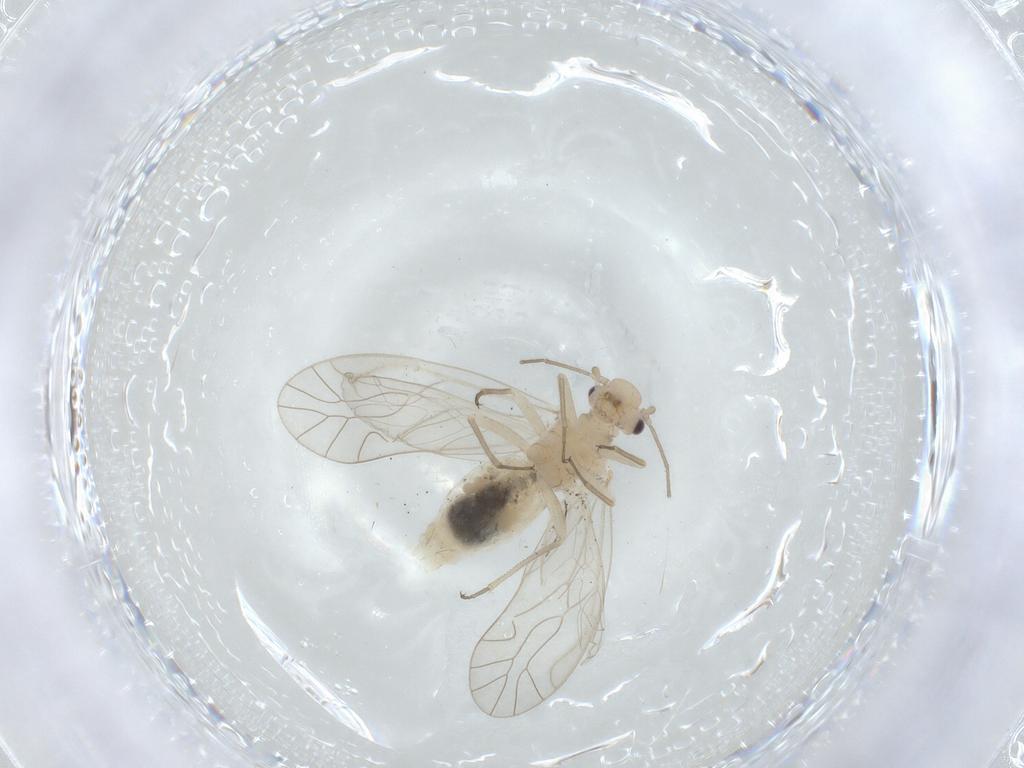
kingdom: Animalia
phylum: Arthropoda
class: Insecta
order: Psocodea
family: Elipsocidae
